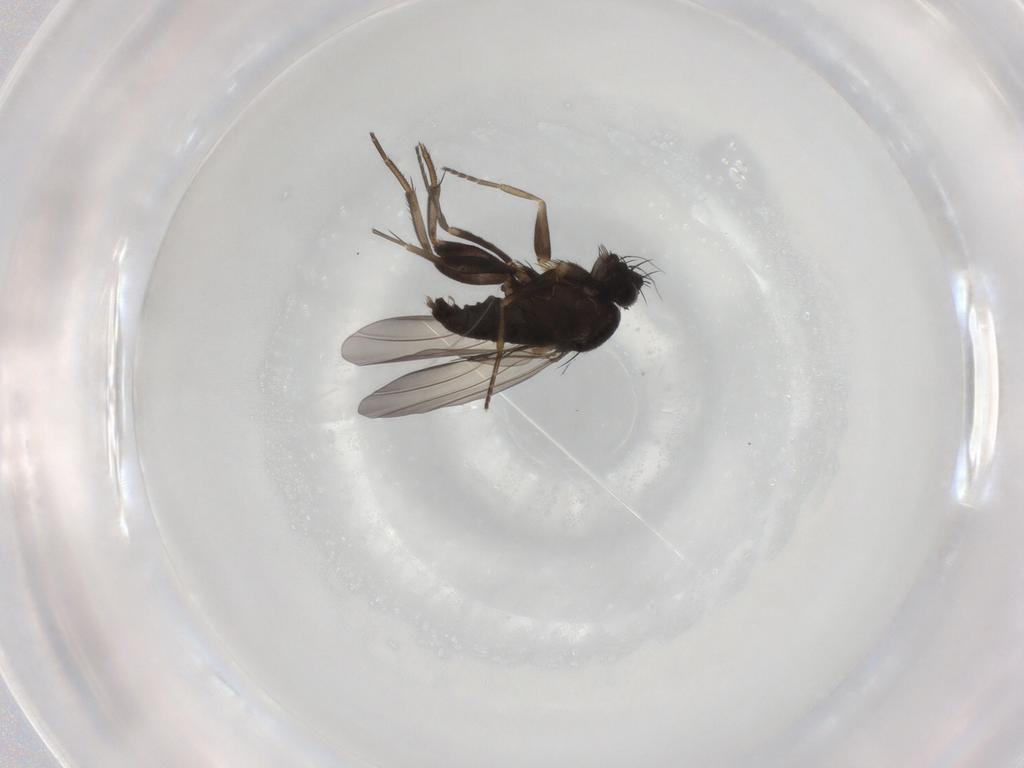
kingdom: Animalia
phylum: Arthropoda
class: Insecta
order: Diptera
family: Phoridae
